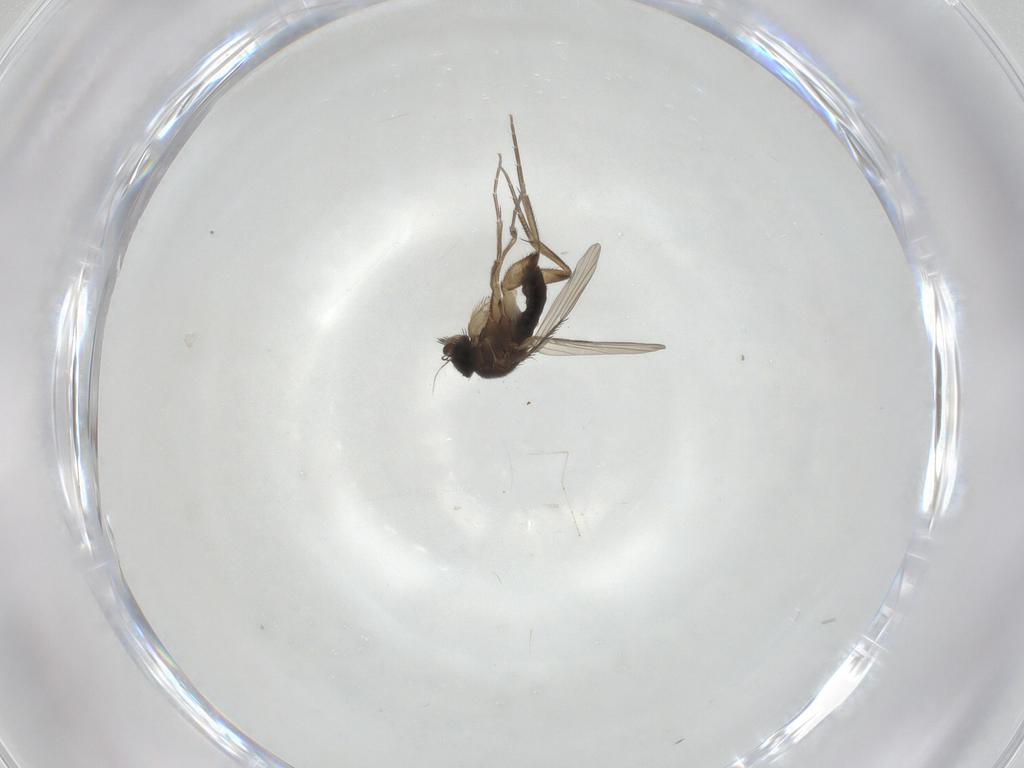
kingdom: Animalia
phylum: Arthropoda
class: Insecta
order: Diptera
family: Phoridae
